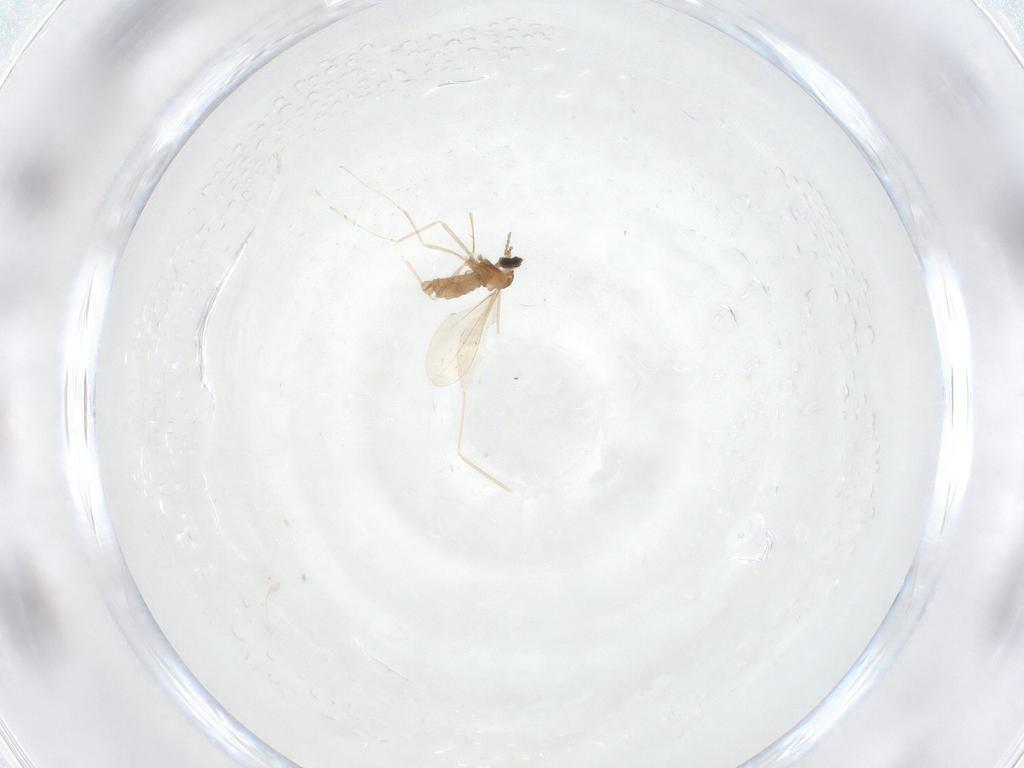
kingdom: Animalia
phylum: Arthropoda
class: Insecta
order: Diptera
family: Cecidomyiidae
